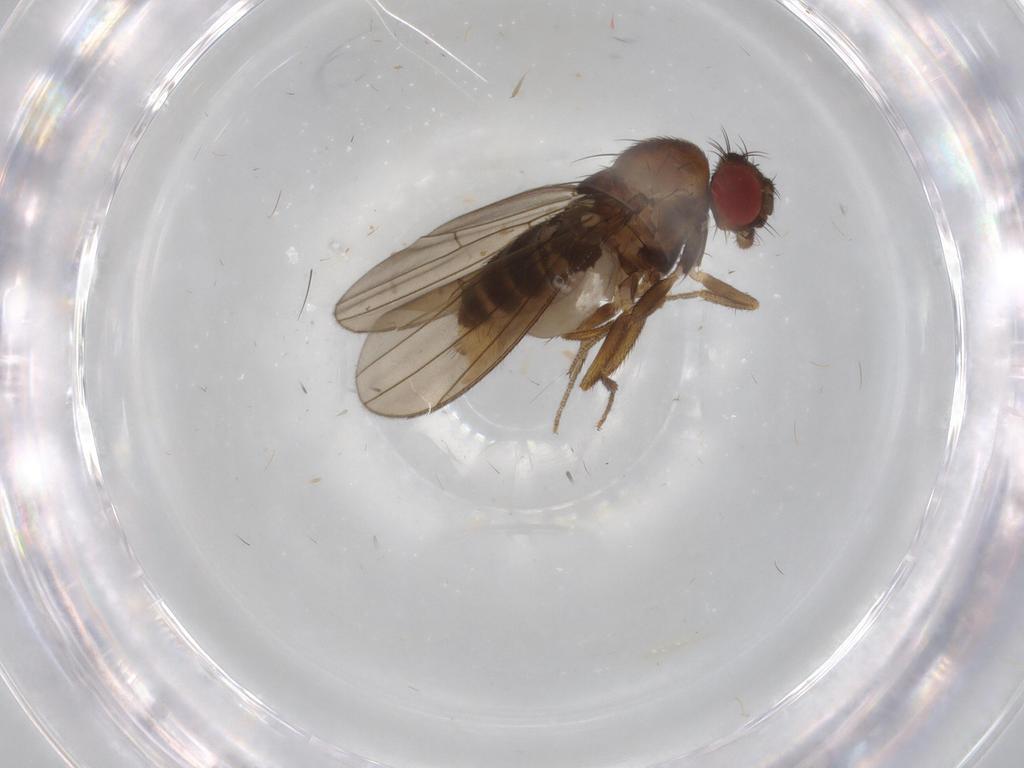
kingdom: Animalia
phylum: Arthropoda
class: Insecta
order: Diptera
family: Drosophilidae
